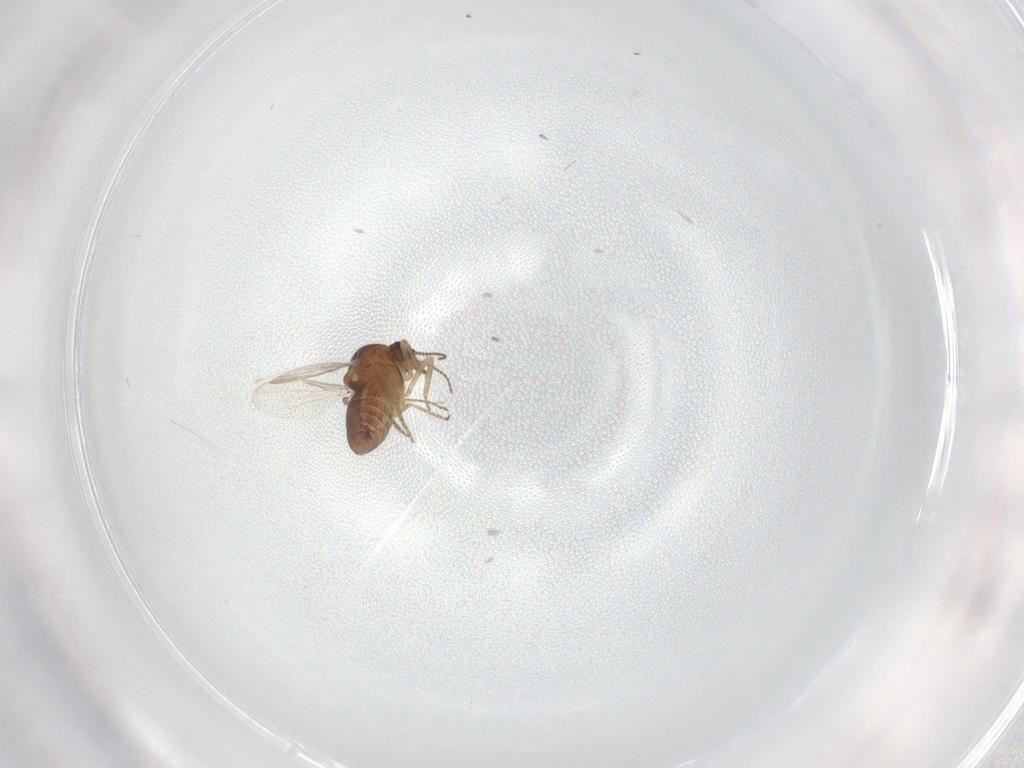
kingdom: Animalia
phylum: Arthropoda
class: Insecta
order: Diptera
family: Ceratopogonidae
